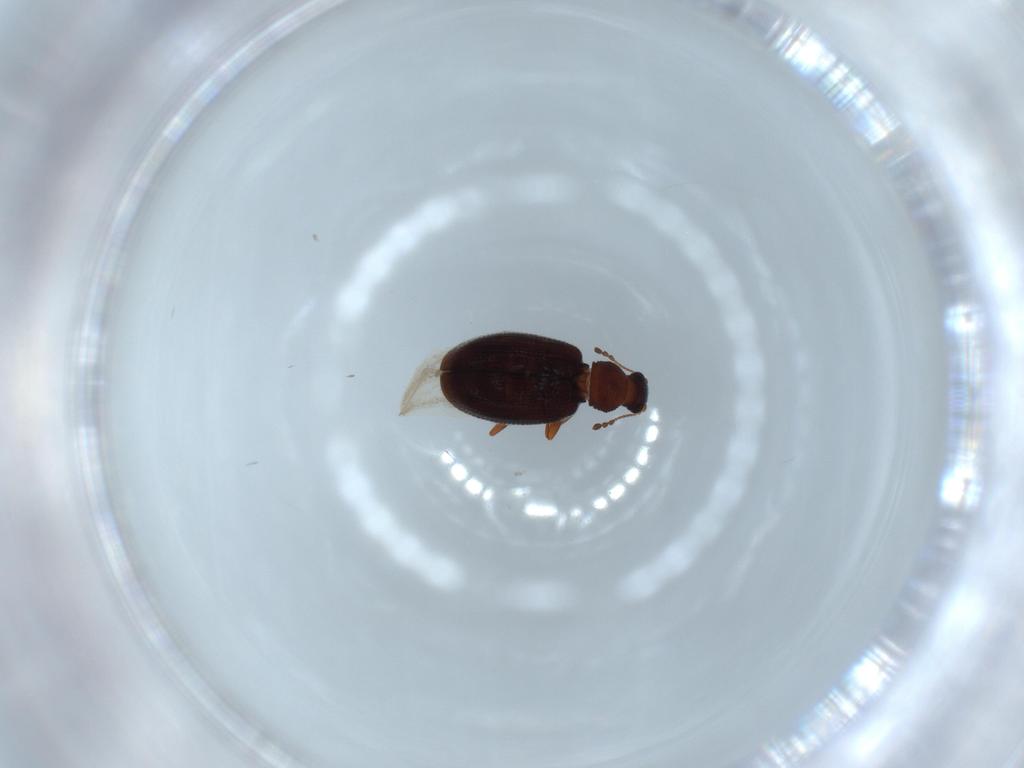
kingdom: Animalia
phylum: Arthropoda
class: Insecta
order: Coleoptera
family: Latridiidae
